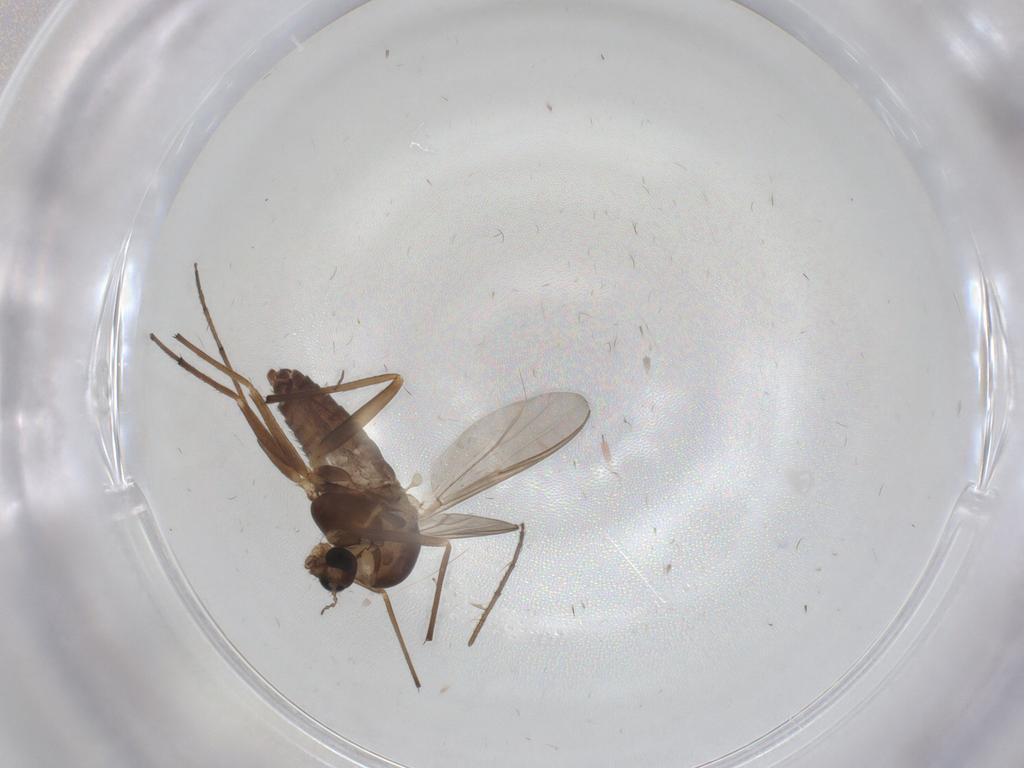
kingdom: Animalia
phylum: Arthropoda
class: Insecta
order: Diptera
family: Chironomidae
